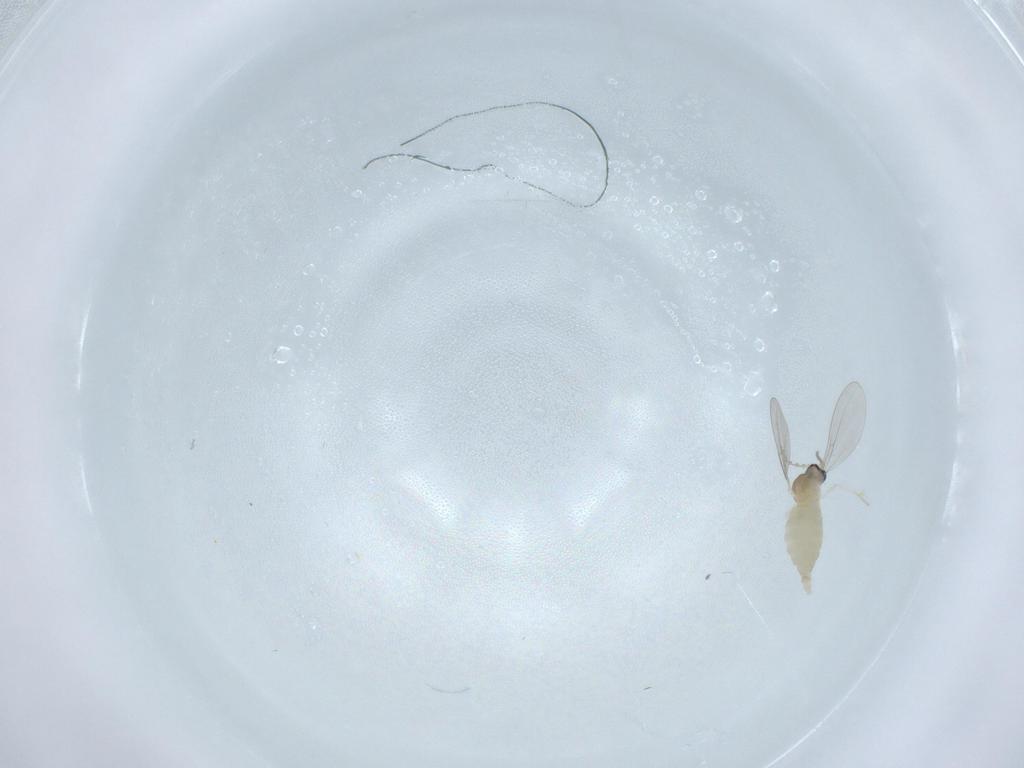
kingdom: Animalia
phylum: Arthropoda
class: Insecta
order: Diptera
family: Cecidomyiidae
